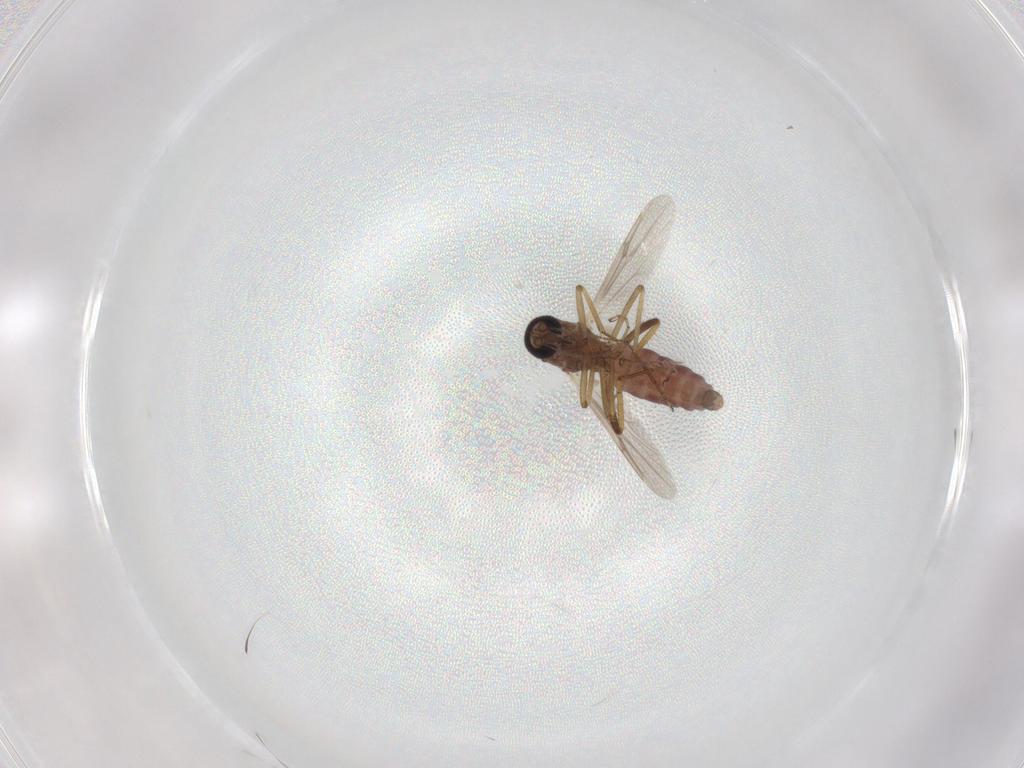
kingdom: Animalia
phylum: Arthropoda
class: Insecta
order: Diptera
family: Ceratopogonidae
